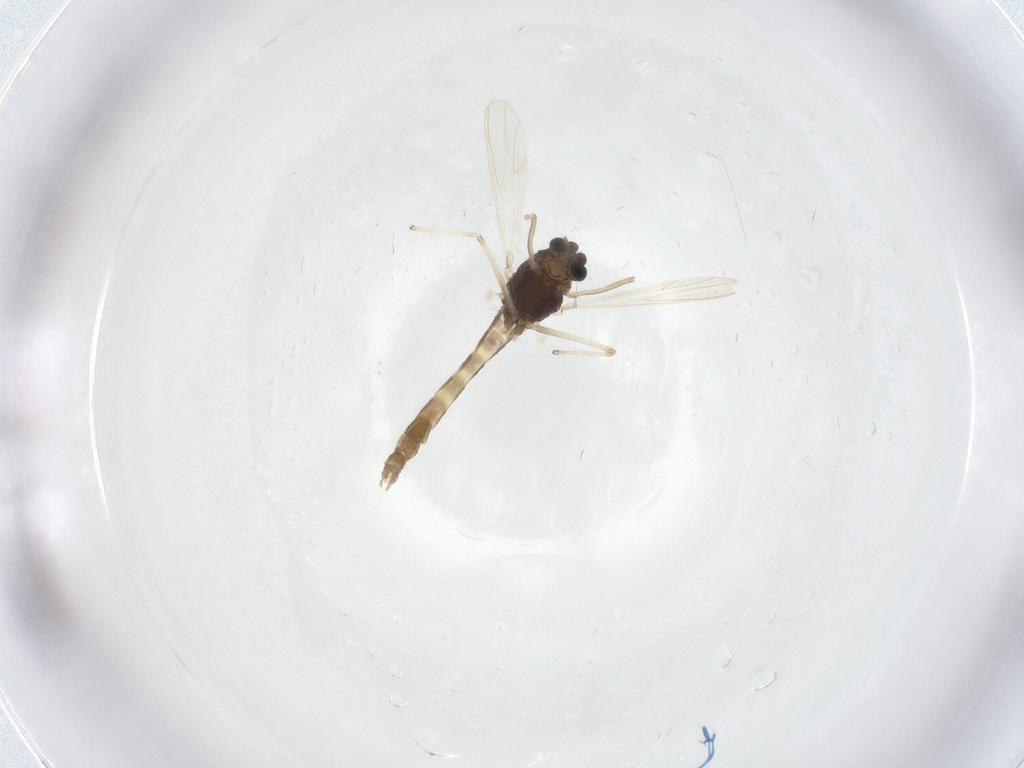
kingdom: Animalia
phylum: Arthropoda
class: Insecta
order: Diptera
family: Chironomidae
